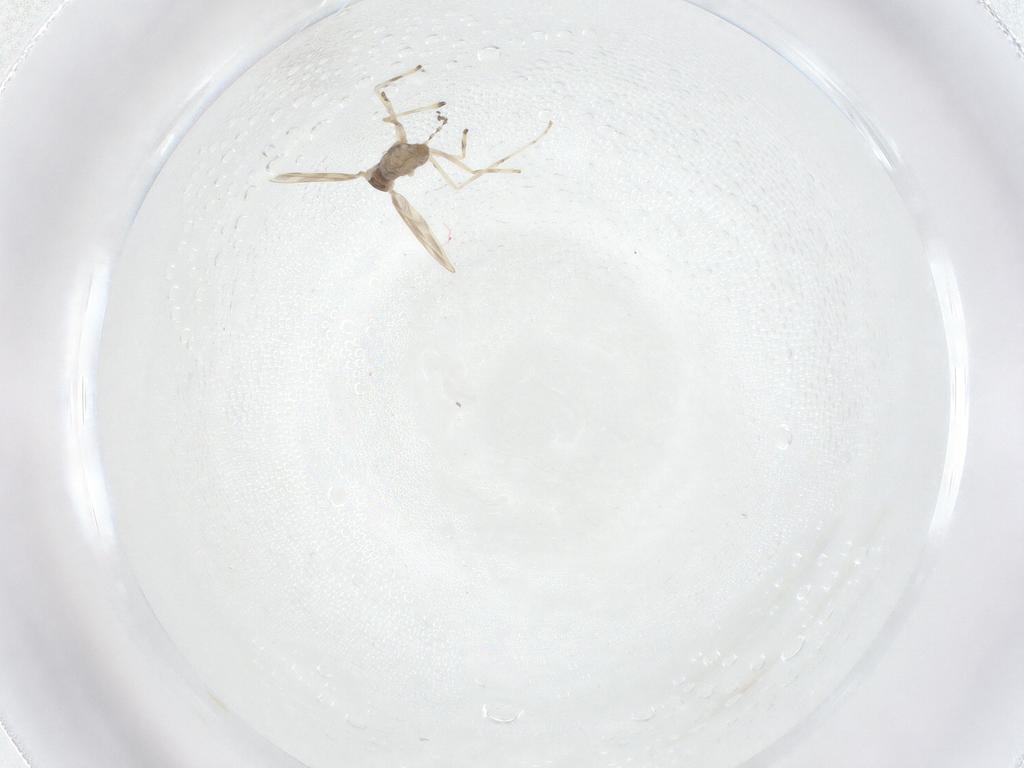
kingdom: Animalia
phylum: Arthropoda
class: Insecta
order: Diptera
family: Cecidomyiidae
